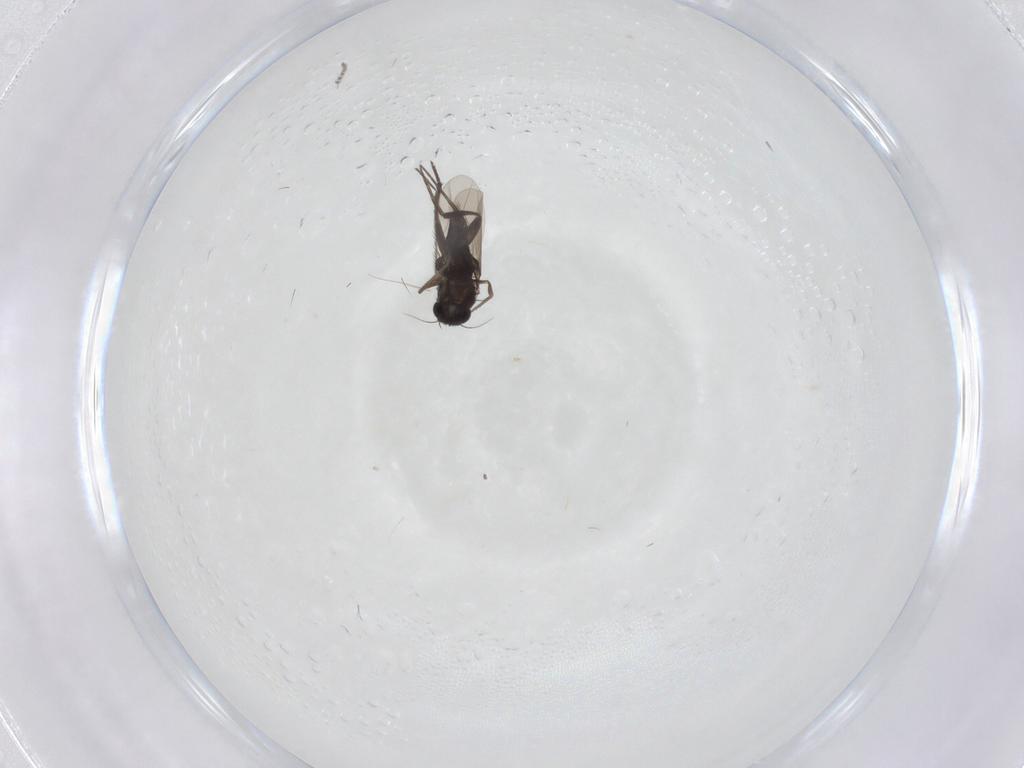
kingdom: Animalia
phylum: Arthropoda
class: Insecta
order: Diptera
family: Phoridae
